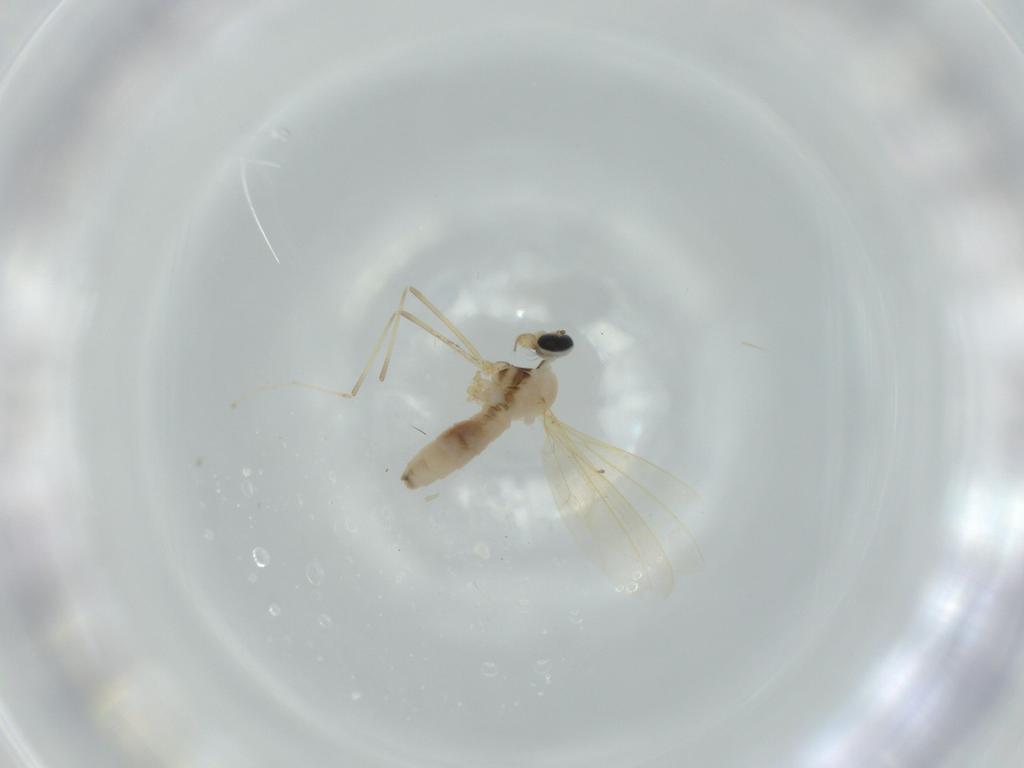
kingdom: Animalia
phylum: Arthropoda
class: Insecta
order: Diptera
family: Cecidomyiidae
